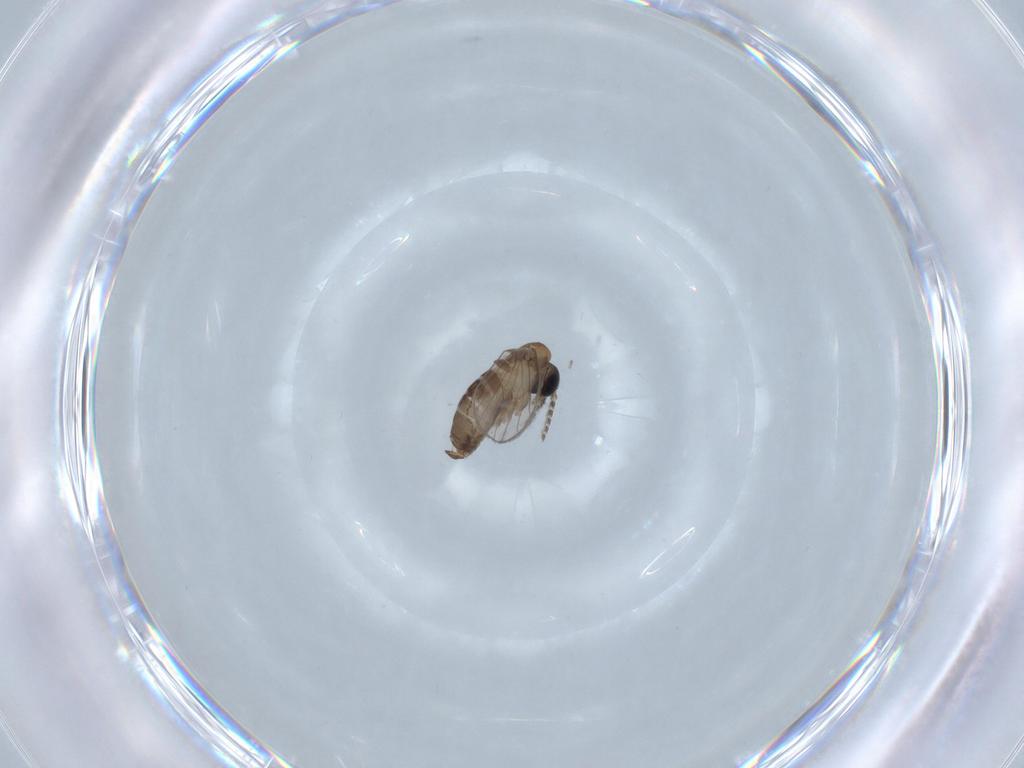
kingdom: Animalia
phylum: Arthropoda
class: Insecta
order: Diptera
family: Psychodidae
